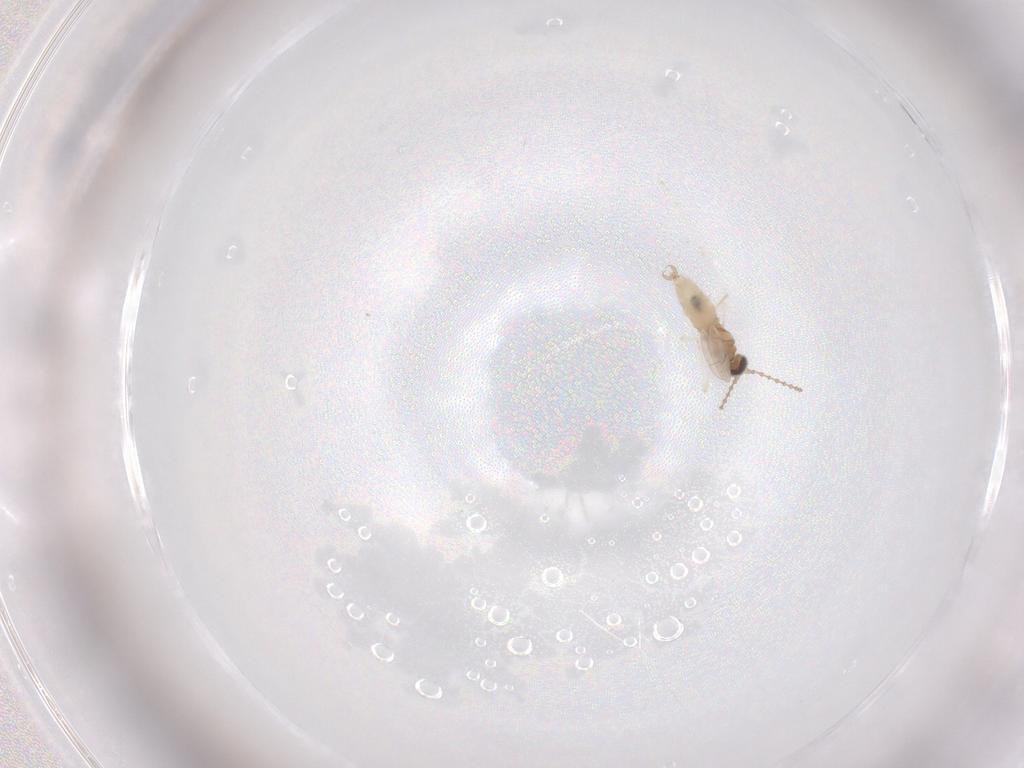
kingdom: Animalia
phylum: Arthropoda
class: Insecta
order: Diptera
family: Cecidomyiidae
